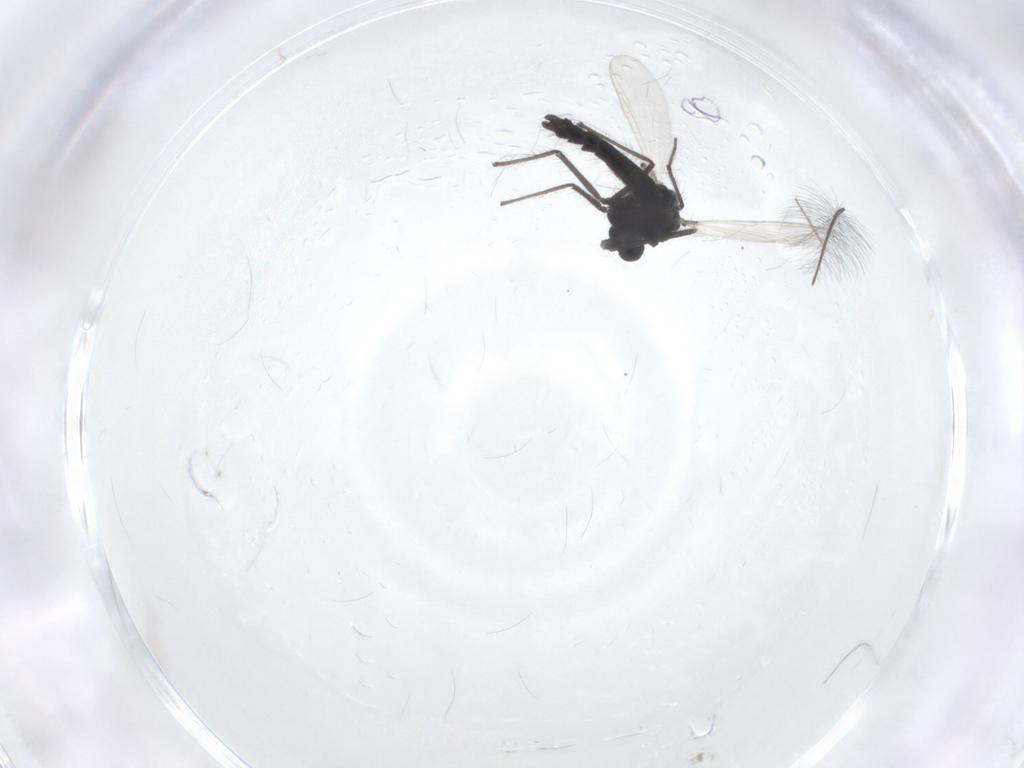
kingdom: Animalia
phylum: Arthropoda
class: Insecta
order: Diptera
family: Chironomidae
